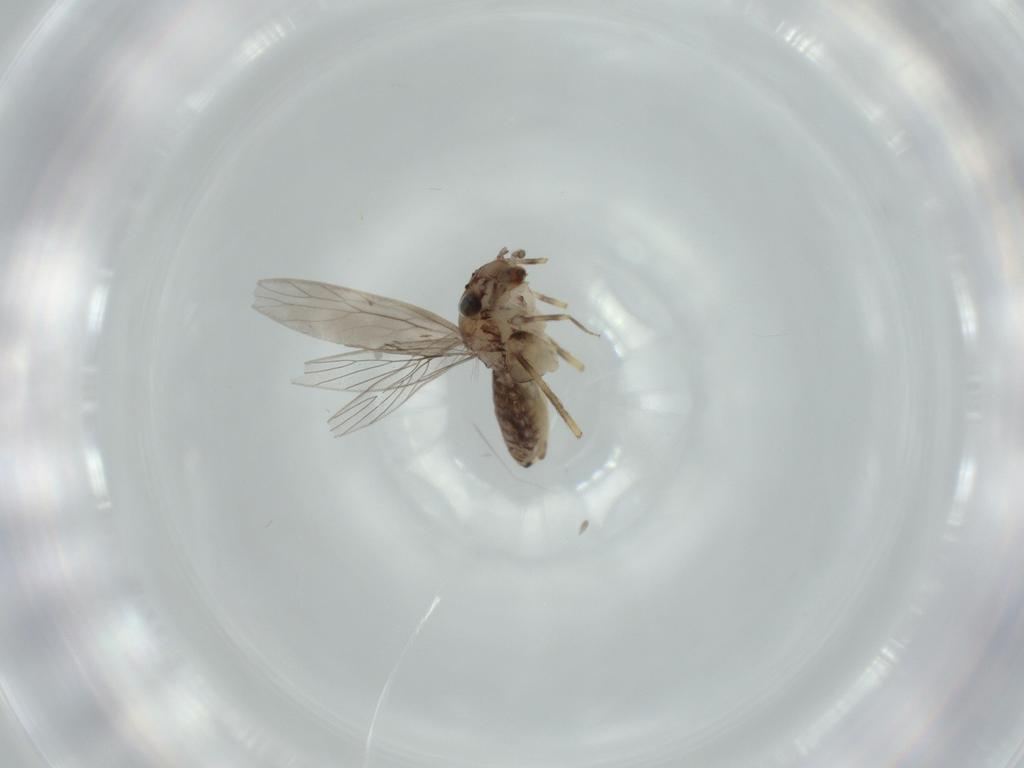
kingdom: Animalia
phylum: Arthropoda
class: Insecta
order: Psocodea
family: Lepidopsocidae
